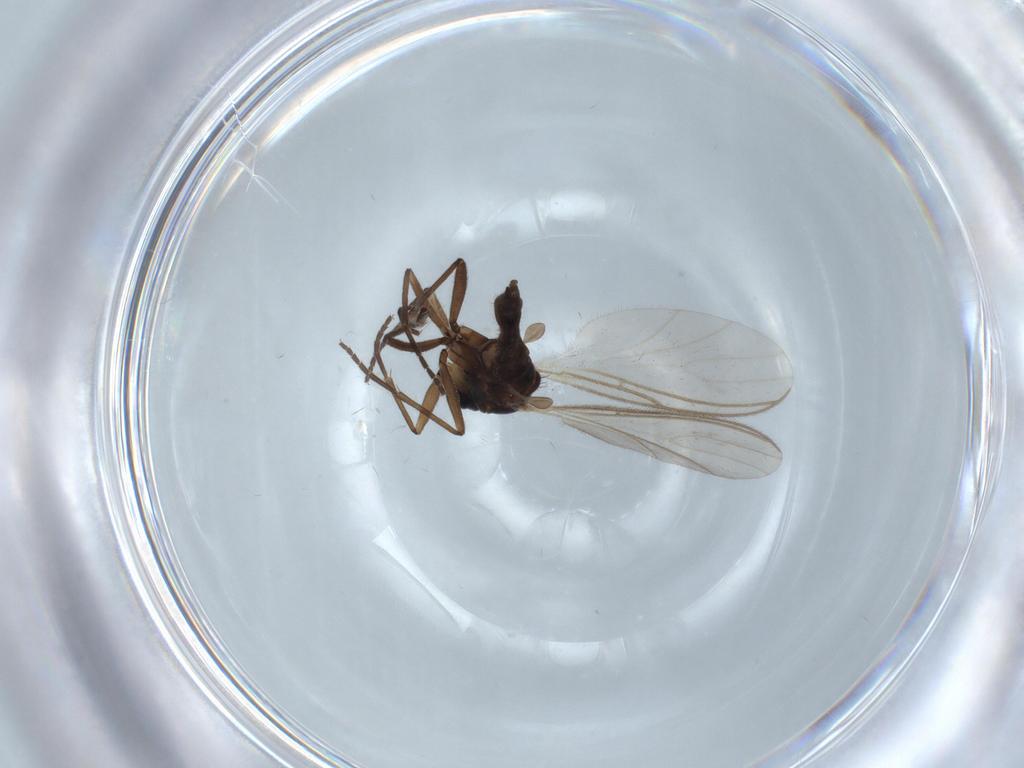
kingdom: Animalia
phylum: Arthropoda
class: Insecta
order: Diptera
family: Sciaridae
